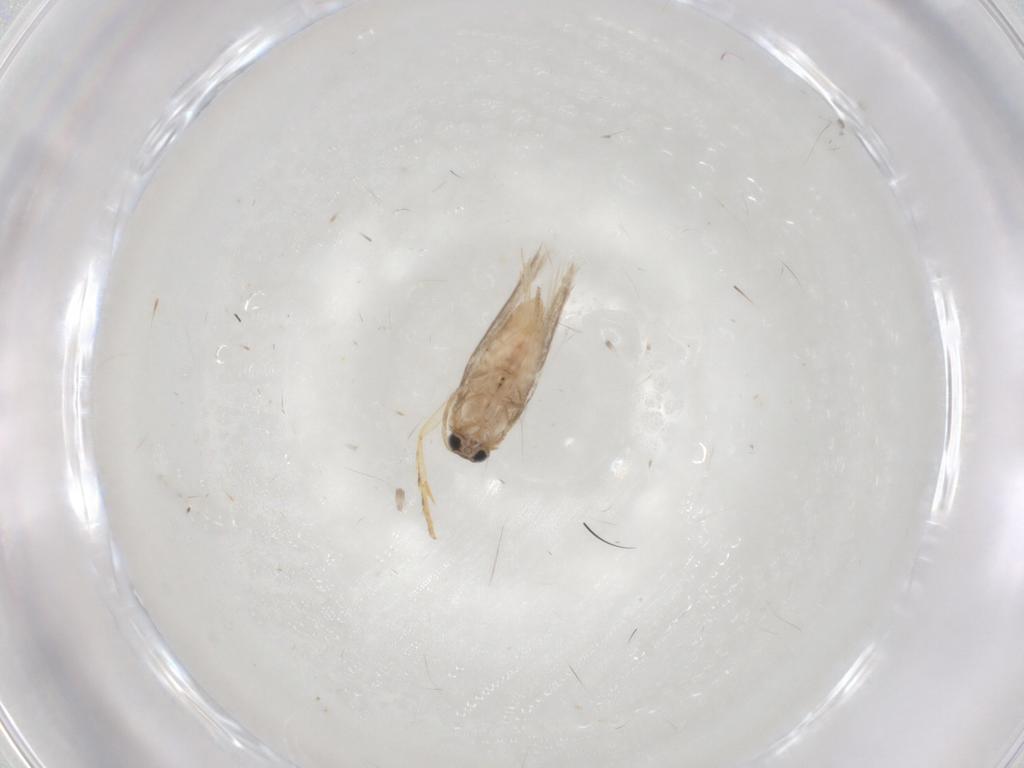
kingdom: Animalia
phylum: Arthropoda
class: Insecta
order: Lepidoptera
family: Nepticulidae
